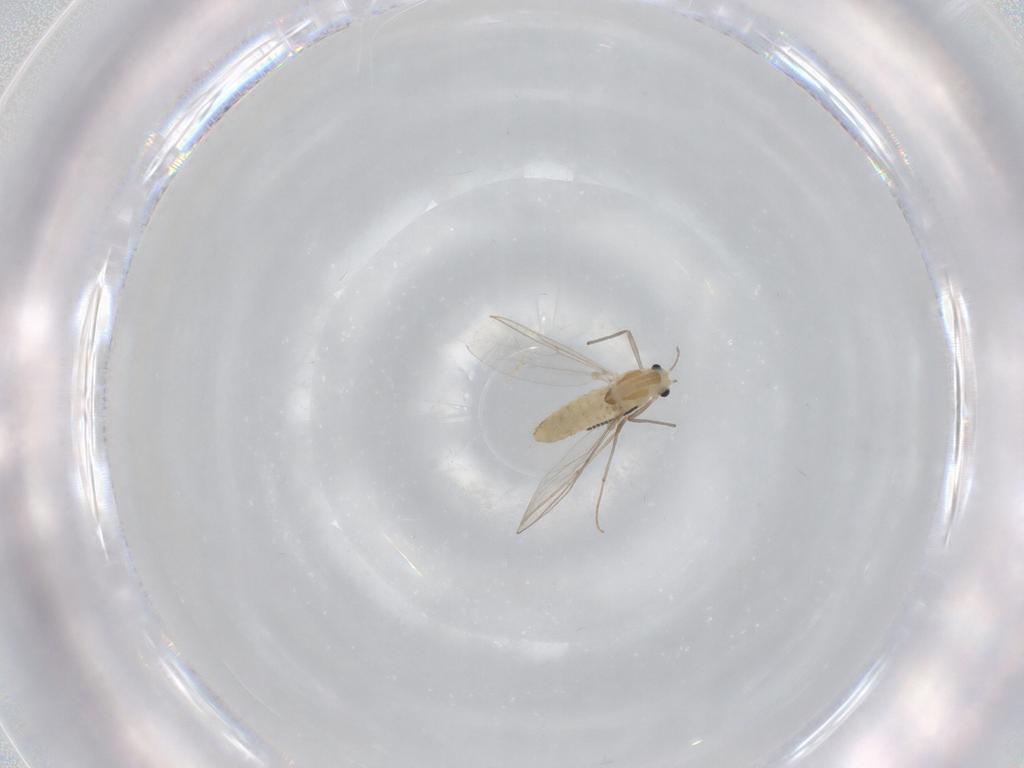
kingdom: Animalia
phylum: Arthropoda
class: Insecta
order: Diptera
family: Chironomidae
